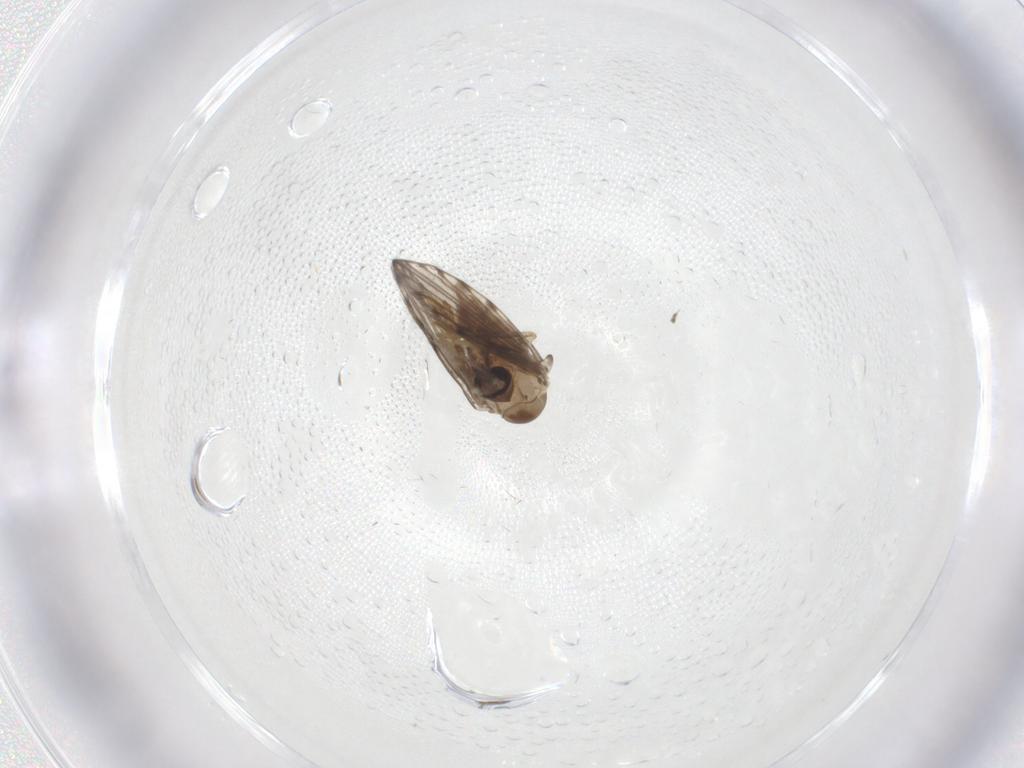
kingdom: Animalia
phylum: Arthropoda
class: Insecta
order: Diptera
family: Psychodidae
